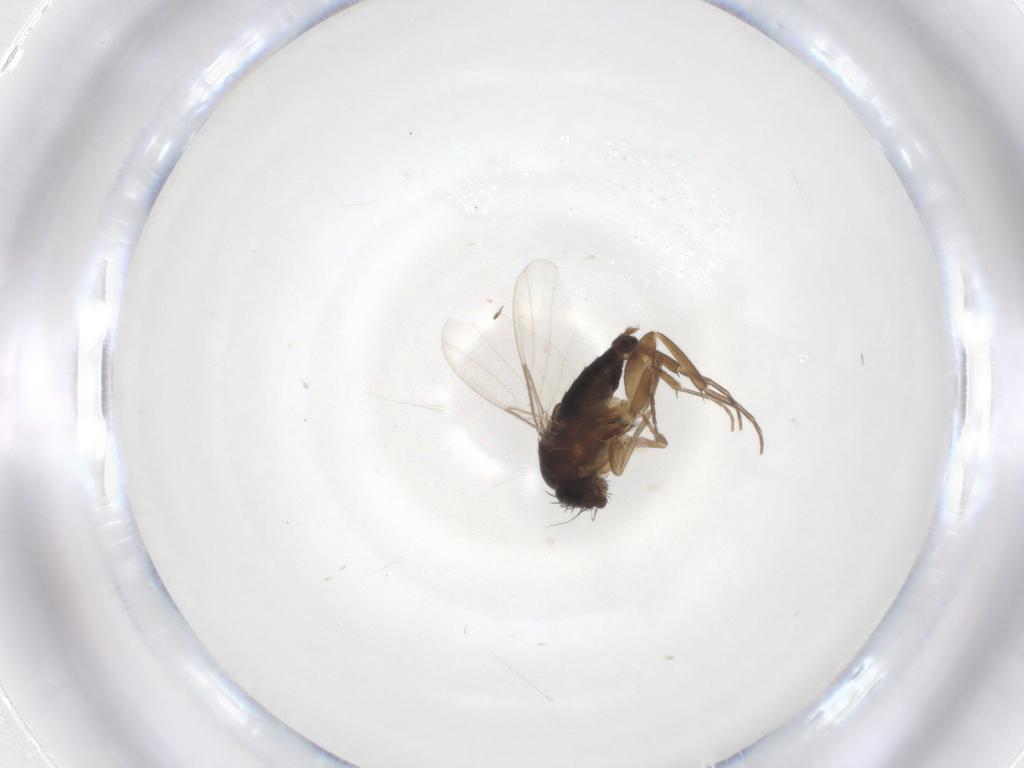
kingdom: Animalia
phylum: Arthropoda
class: Insecta
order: Diptera
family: Phoridae
